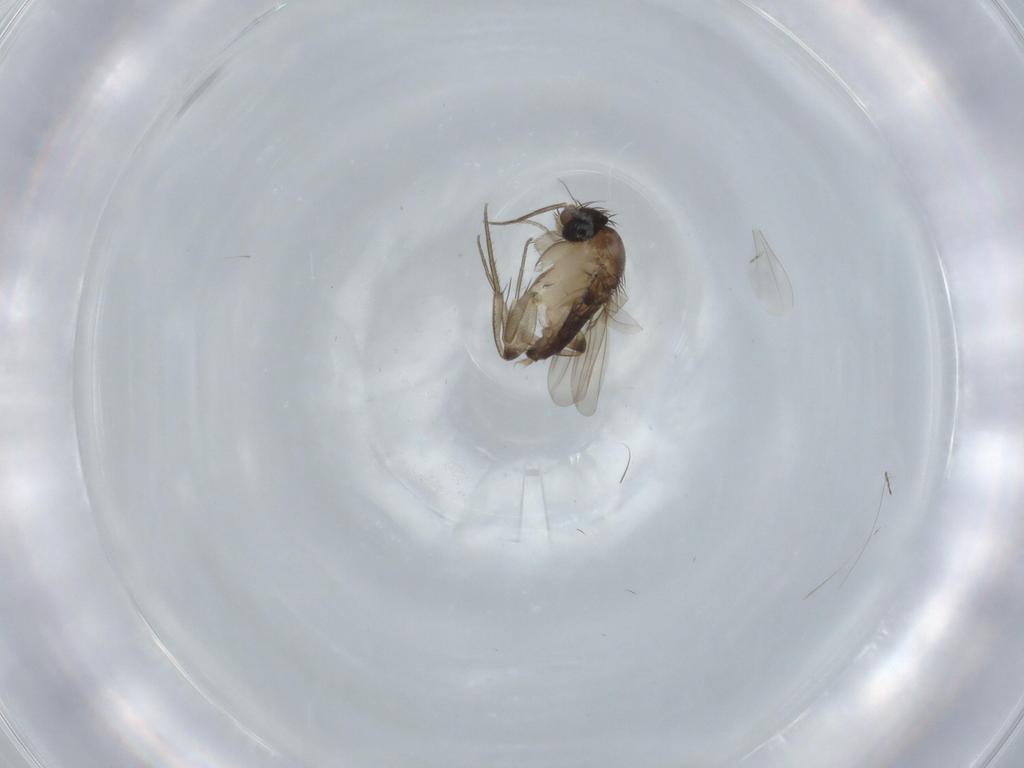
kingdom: Animalia
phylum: Arthropoda
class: Insecta
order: Diptera
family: Phoridae
